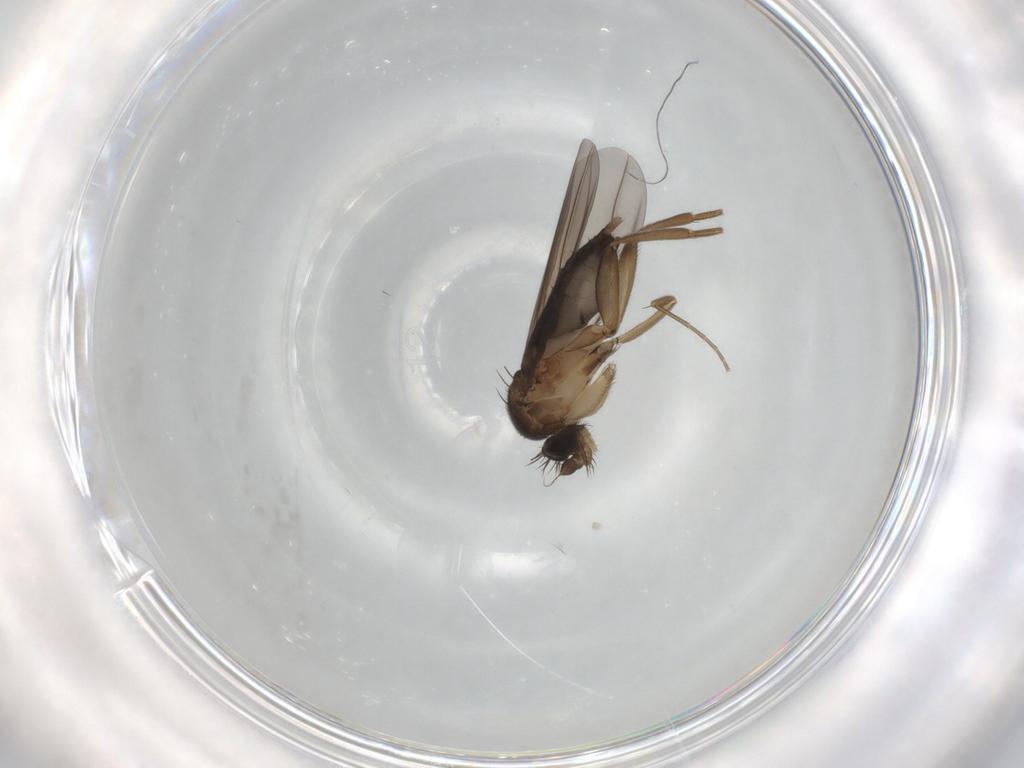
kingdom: Animalia
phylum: Arthropoda
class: Insecta
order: Diptera
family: Phoridae
